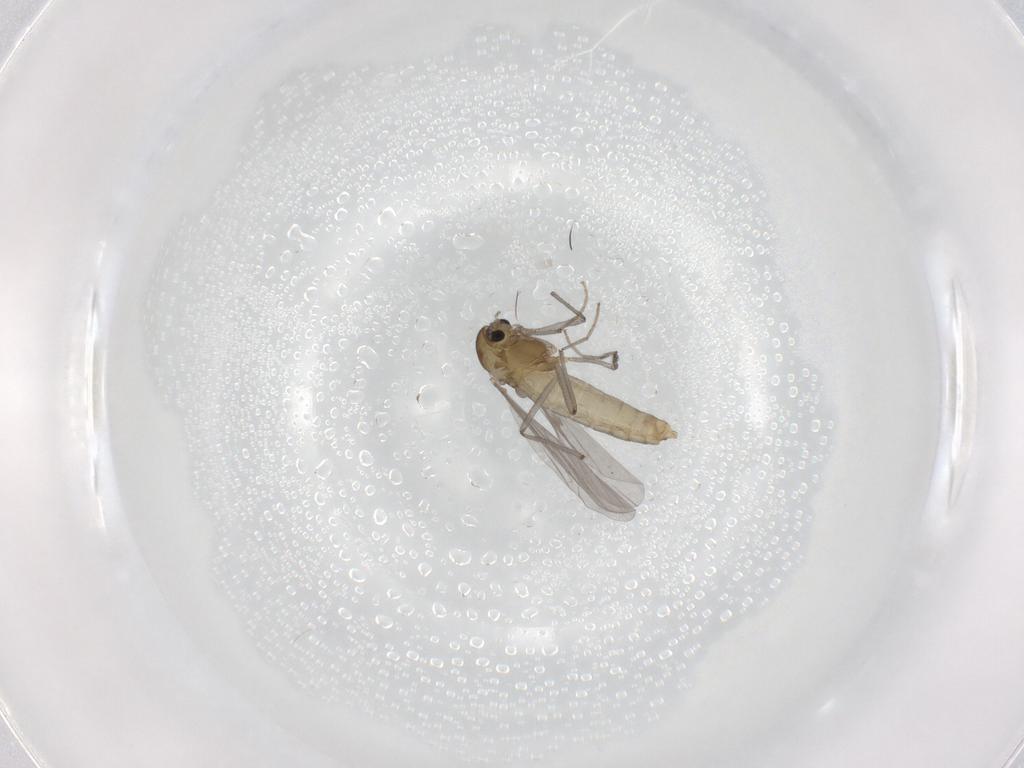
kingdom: Animalia
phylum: Arthropoda
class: Insecta
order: Diptera
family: Chironomidae
